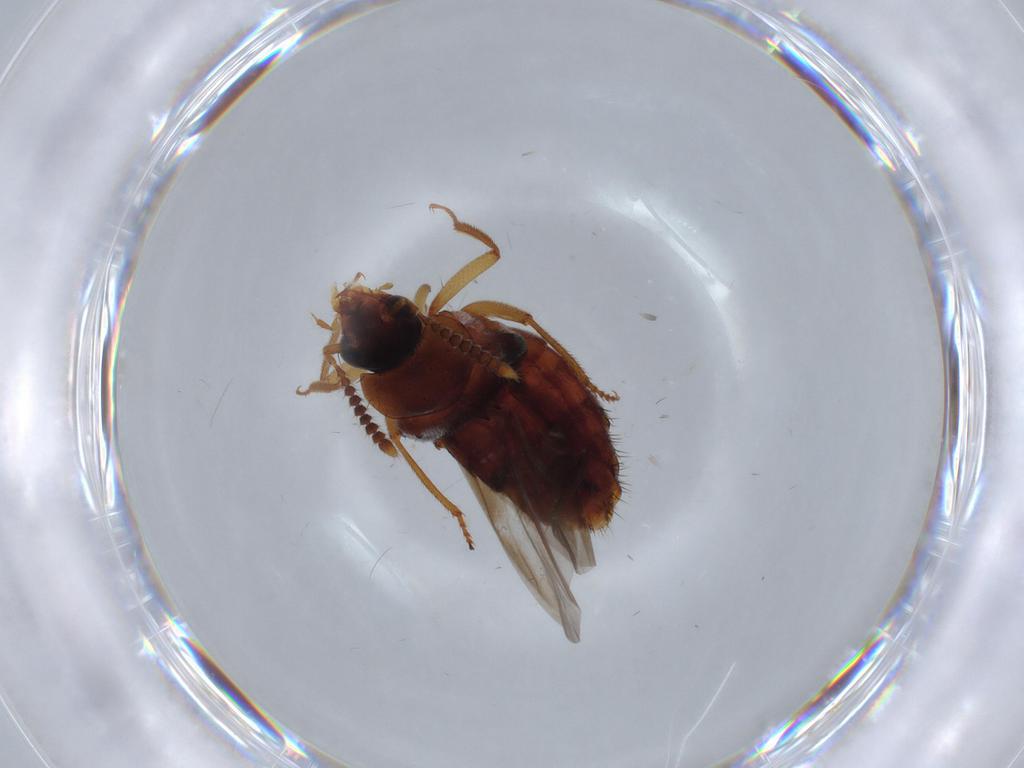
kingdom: Animalia
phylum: Arthropoda
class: Insecta
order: Coleoptera
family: Staphylinidae
